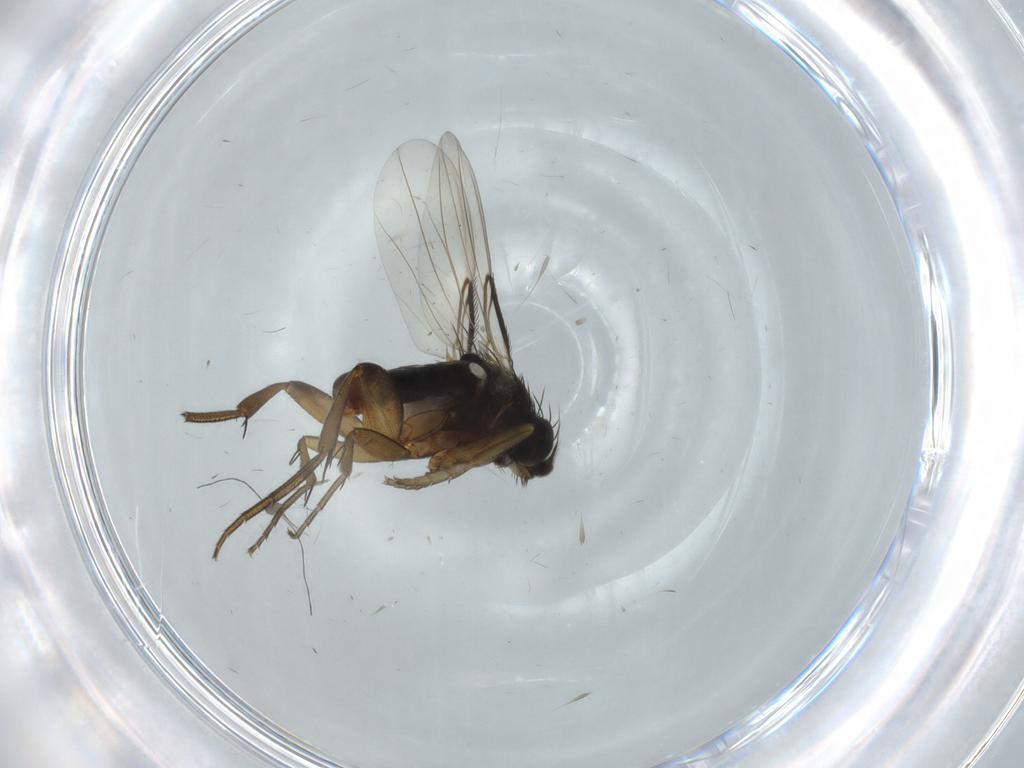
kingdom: Animalia
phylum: Arthropoda
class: Insecta
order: Diptera
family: Phoridae
